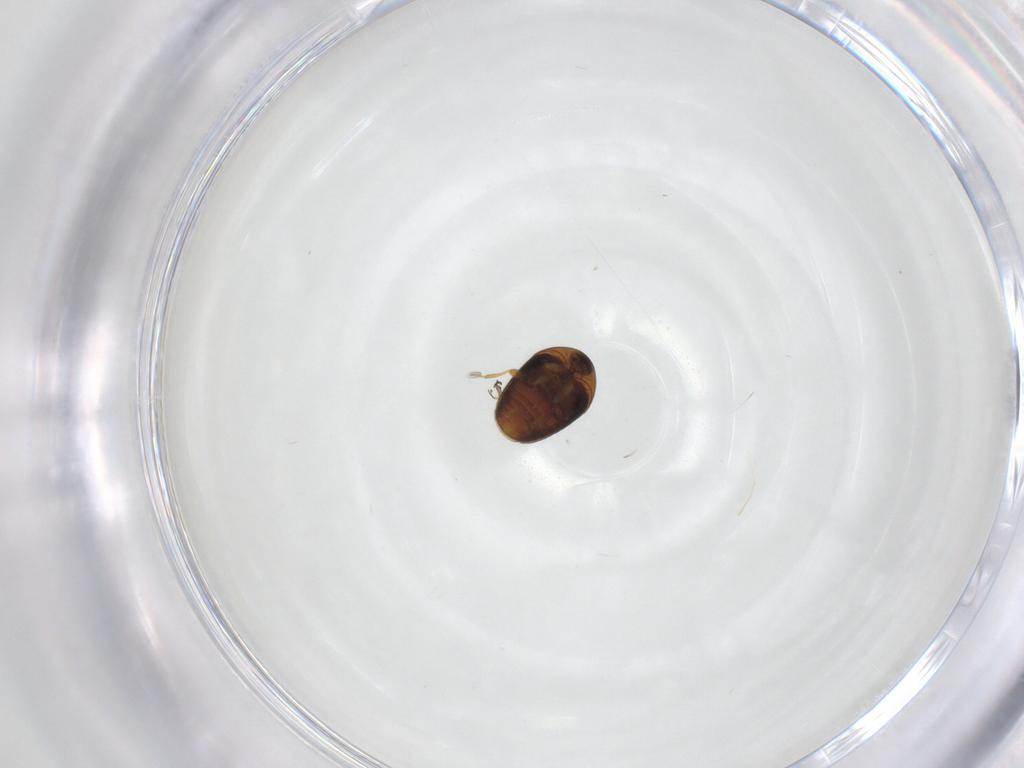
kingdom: Animalia
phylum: Arthropoda
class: Insecta
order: Coleoptera
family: Corylophidae
